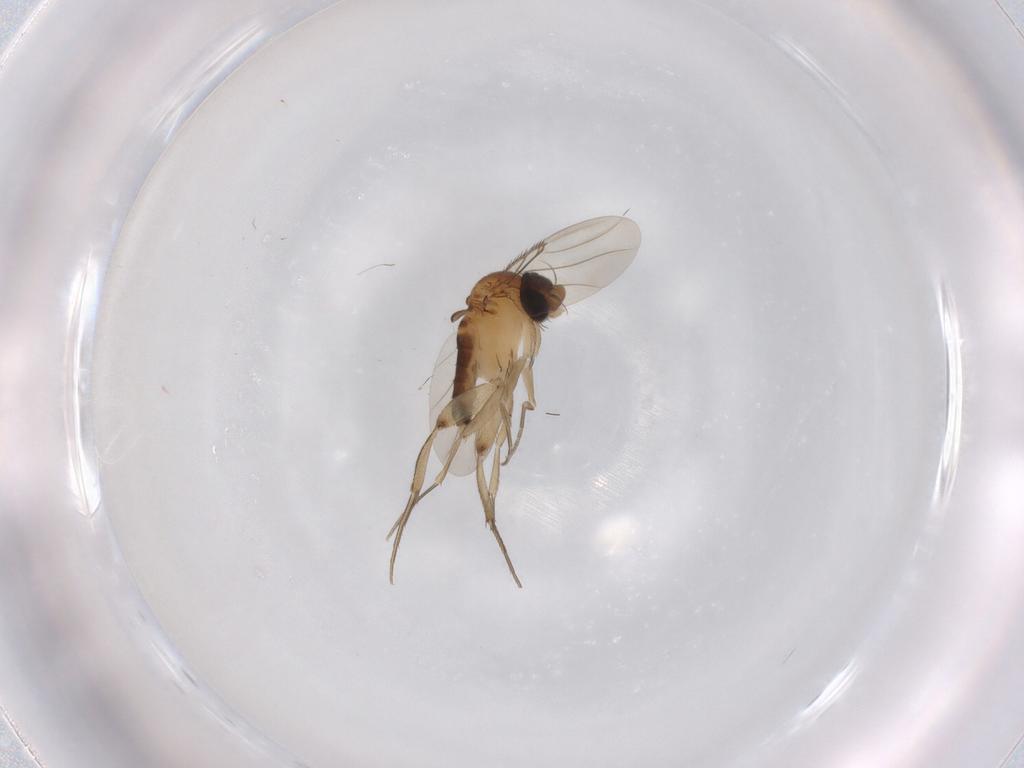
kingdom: Animalia
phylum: Arthropoda
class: Insecta
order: Diptera
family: Phoridae
